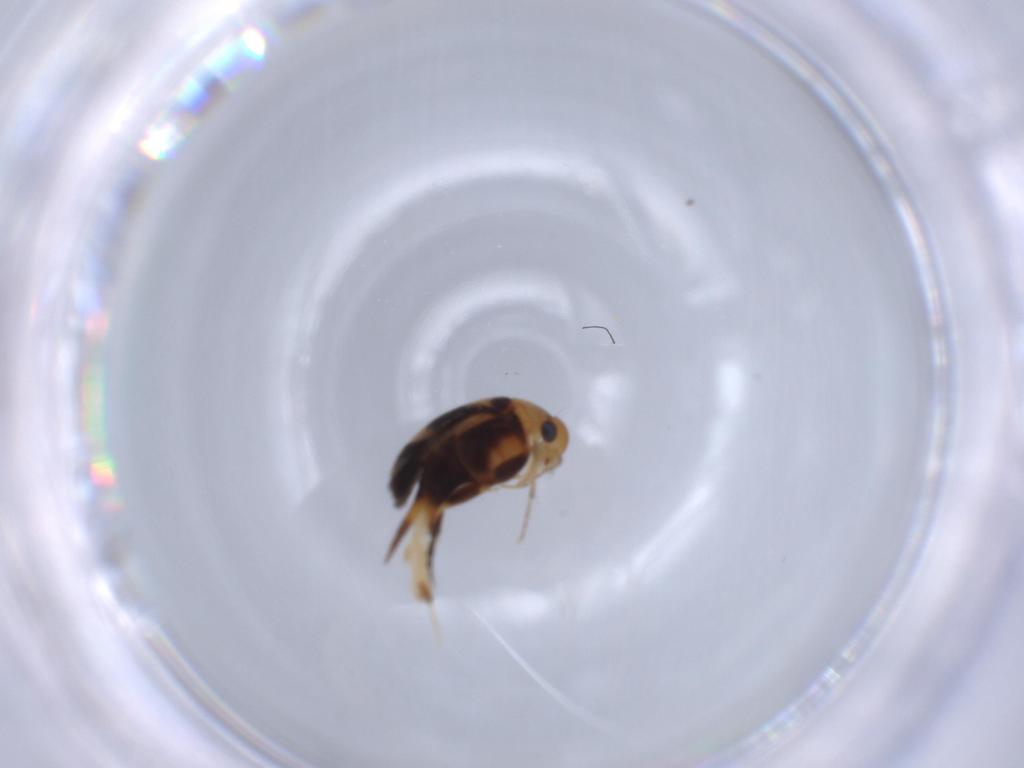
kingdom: Animalia
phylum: Arthropoda
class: Insecta
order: Coleoptera
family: Mordellidae
